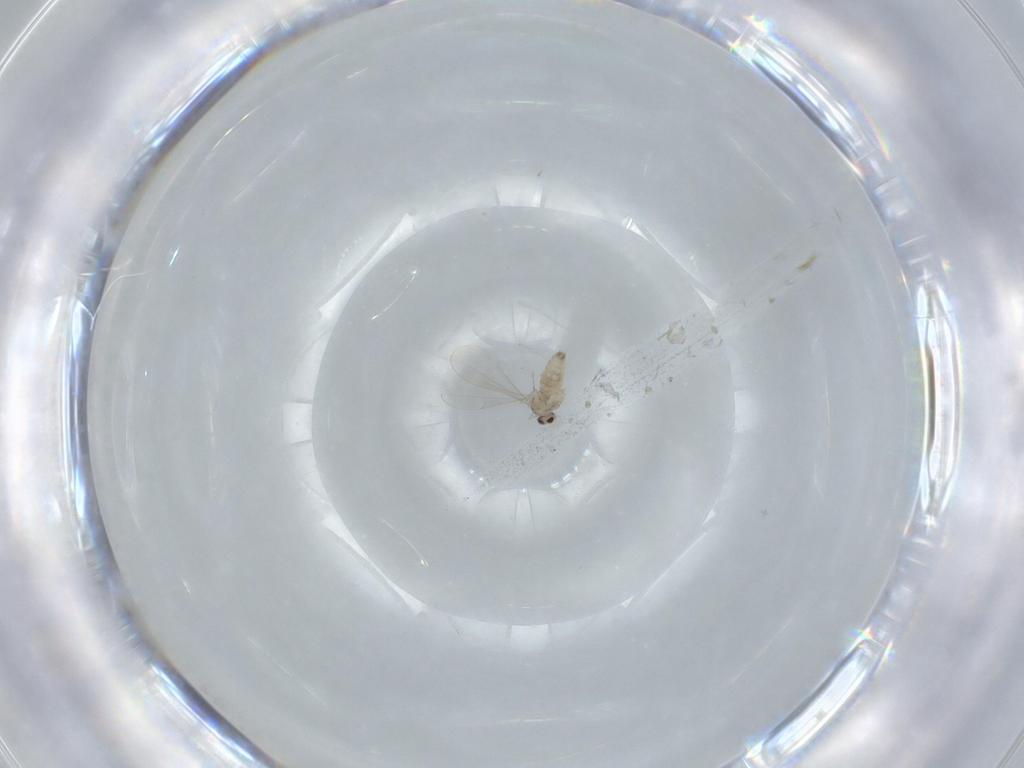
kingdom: Animalia
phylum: Arthropoda
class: Insecta
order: Diptera
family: Cecidomyiidae
